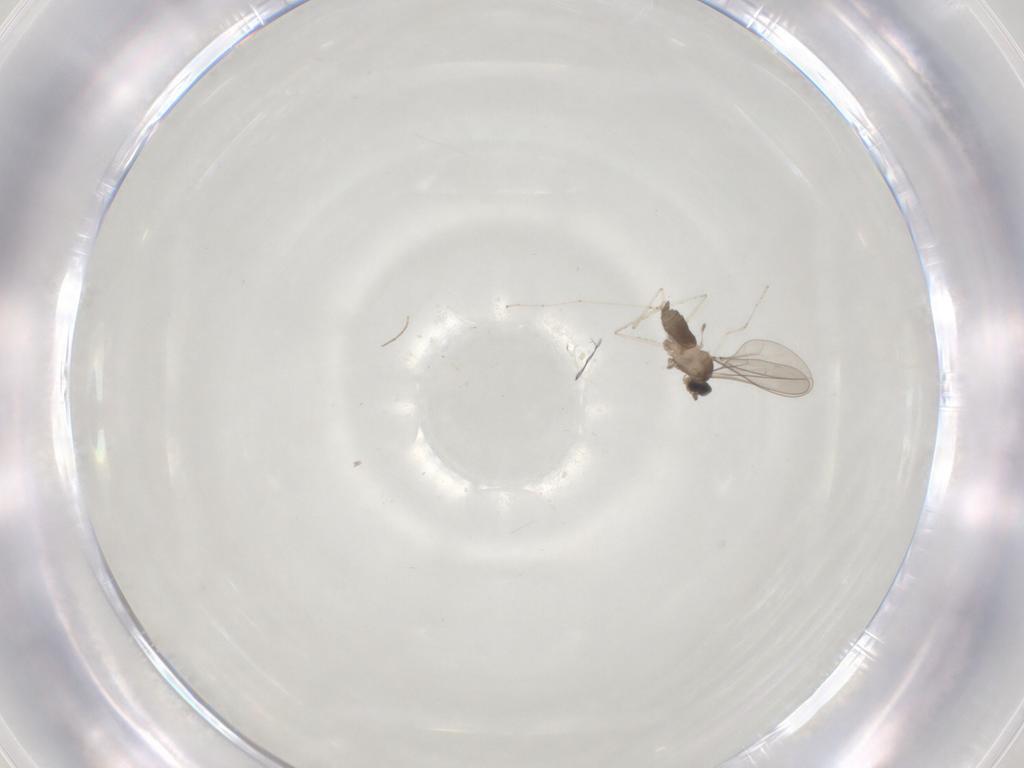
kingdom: Animalia
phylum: Arthropoda
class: Insecta
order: Diptera
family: Cecidomyiidae
